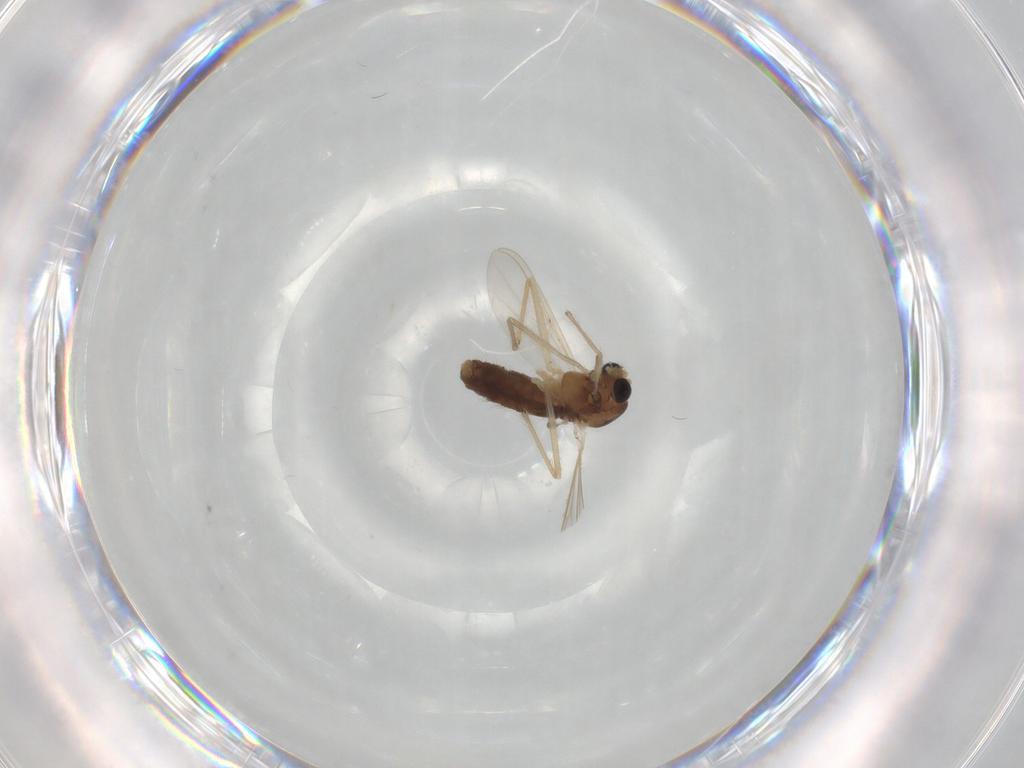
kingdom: Animalia
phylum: Arthropoda
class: Insecta
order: Diptera
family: Chironomidae
